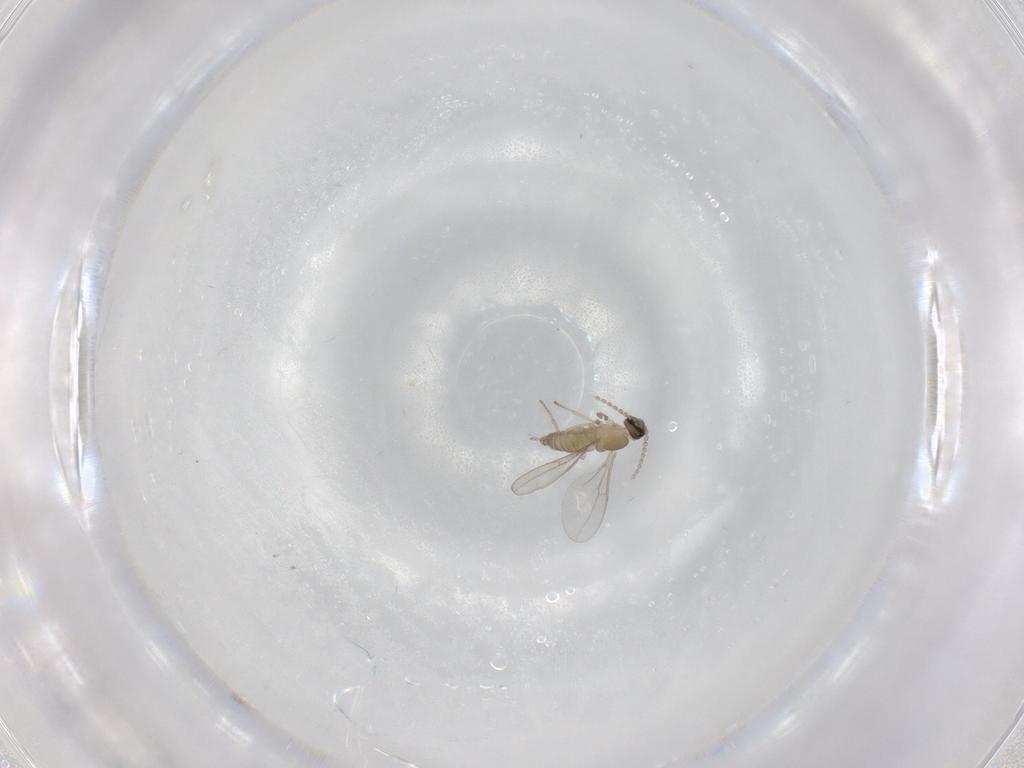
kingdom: Animalia
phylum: Arthropoda
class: Insecta
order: Diptera
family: Cecidomyiidae
